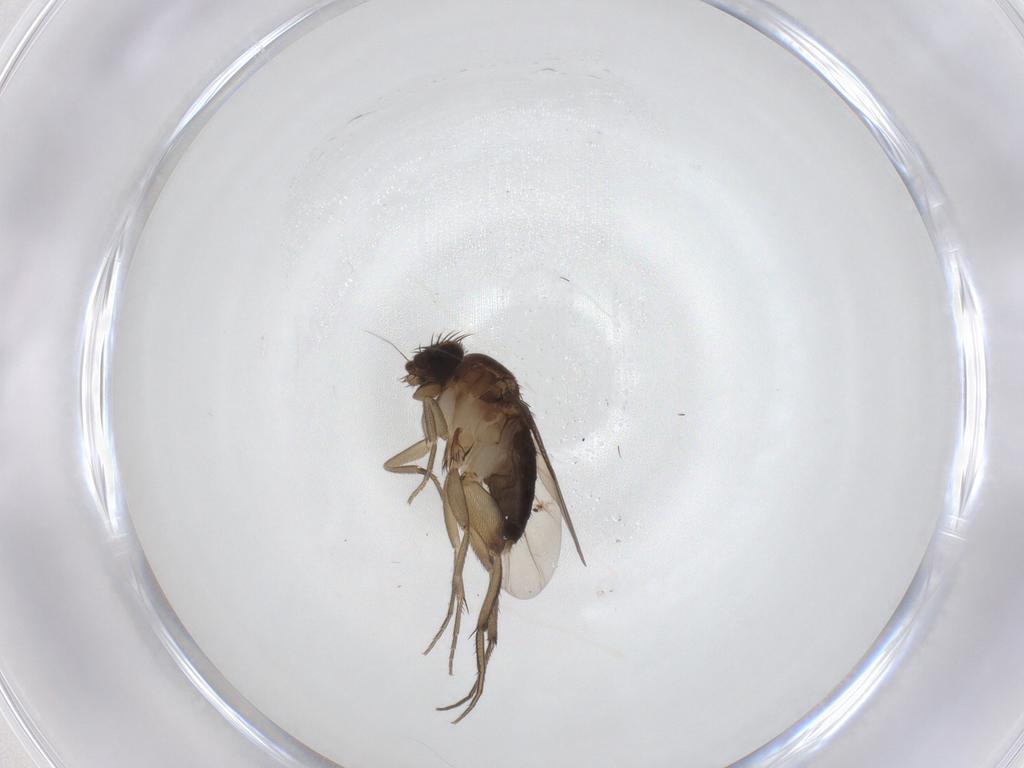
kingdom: Animalia
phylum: Arthropoda
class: Insecta
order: Diptera
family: Phoridae
